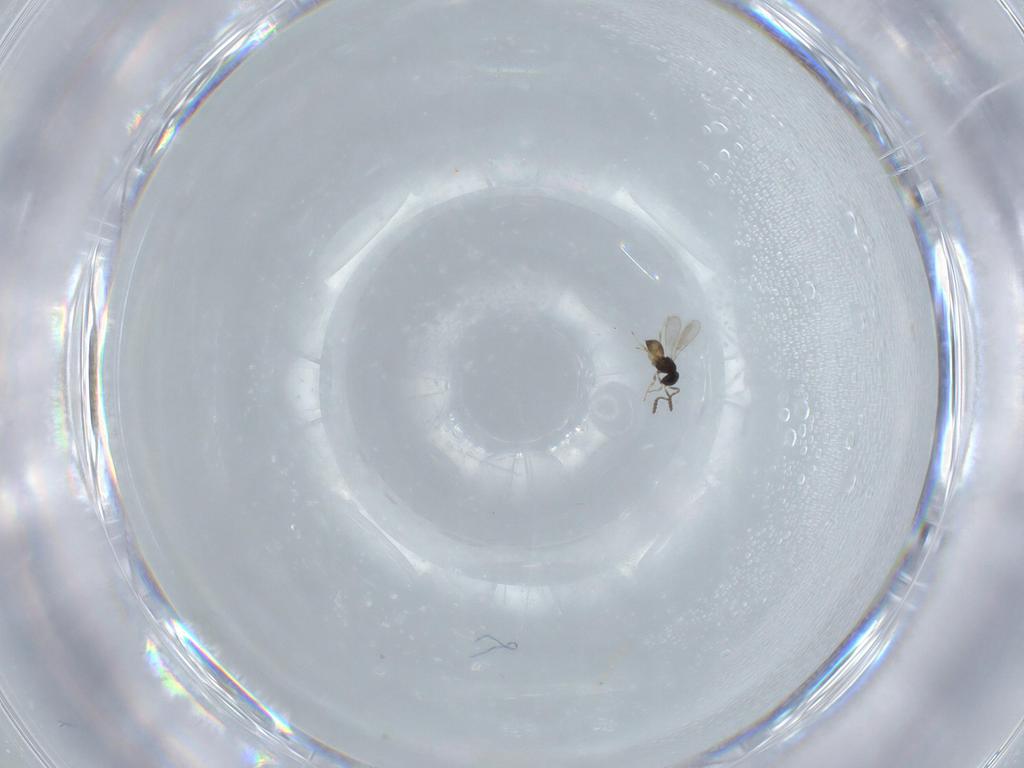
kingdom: Animalia
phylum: Arthropoda
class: Insecta
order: Hymenoptera
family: Scelionidae
